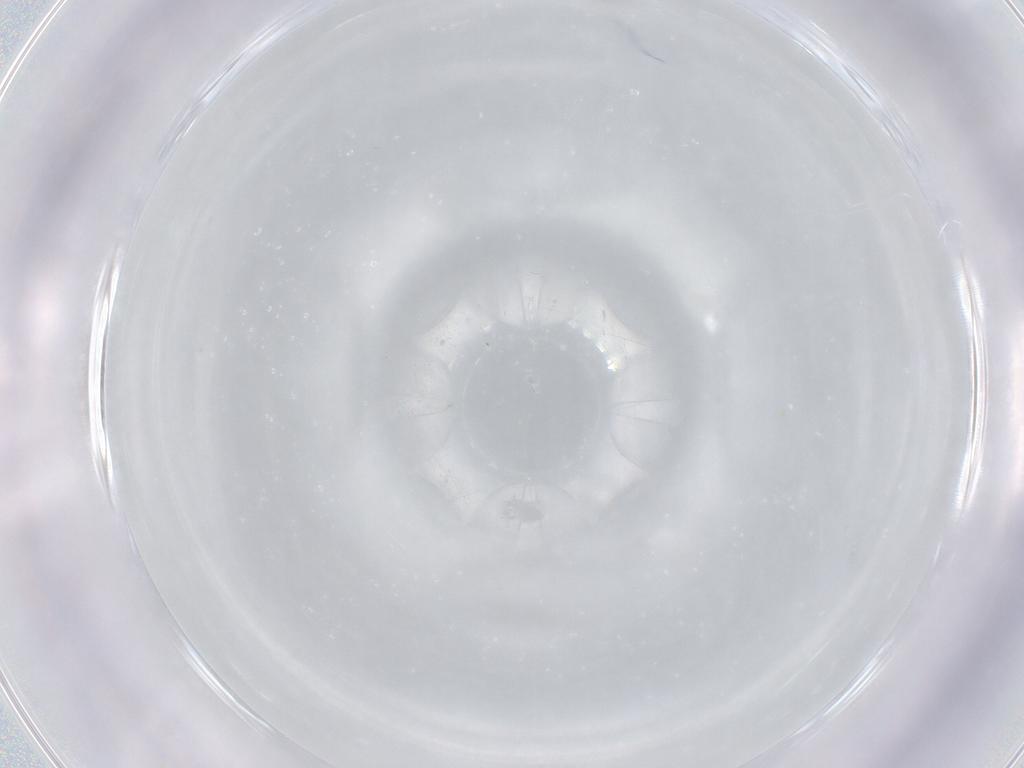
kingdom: Animalia
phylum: Arthropoda
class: Insecta
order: Diptera
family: Chironomidae
